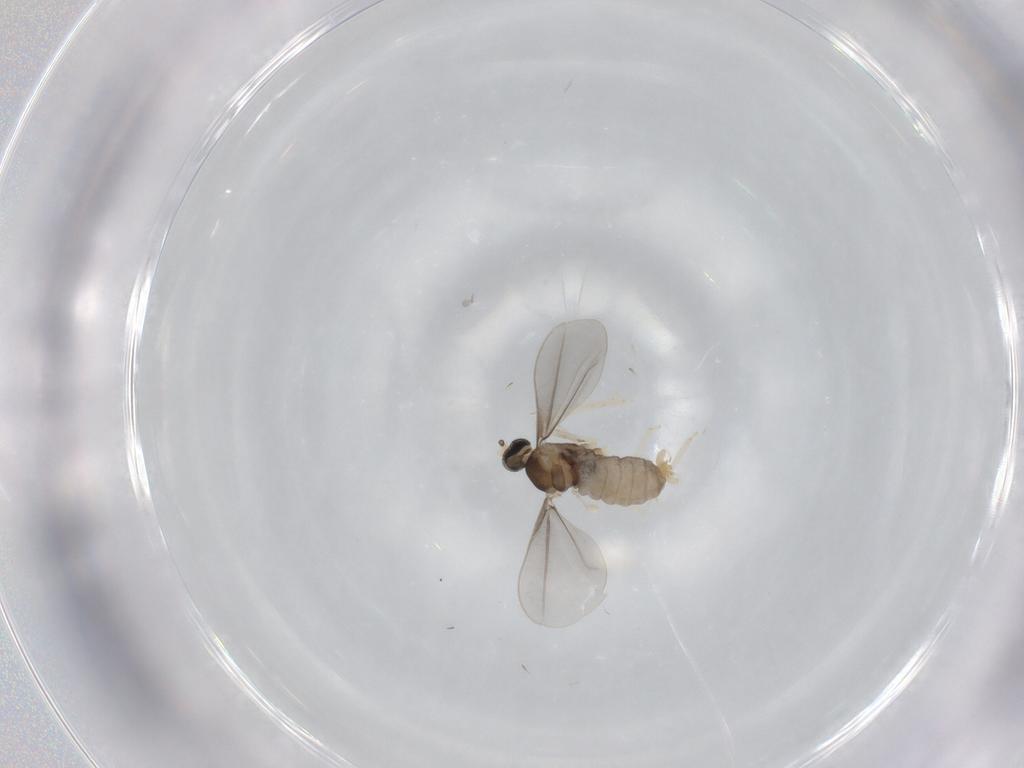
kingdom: Animalia
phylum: Arthropoda
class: Insecta
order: Diptera
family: Cecidomyiidae
